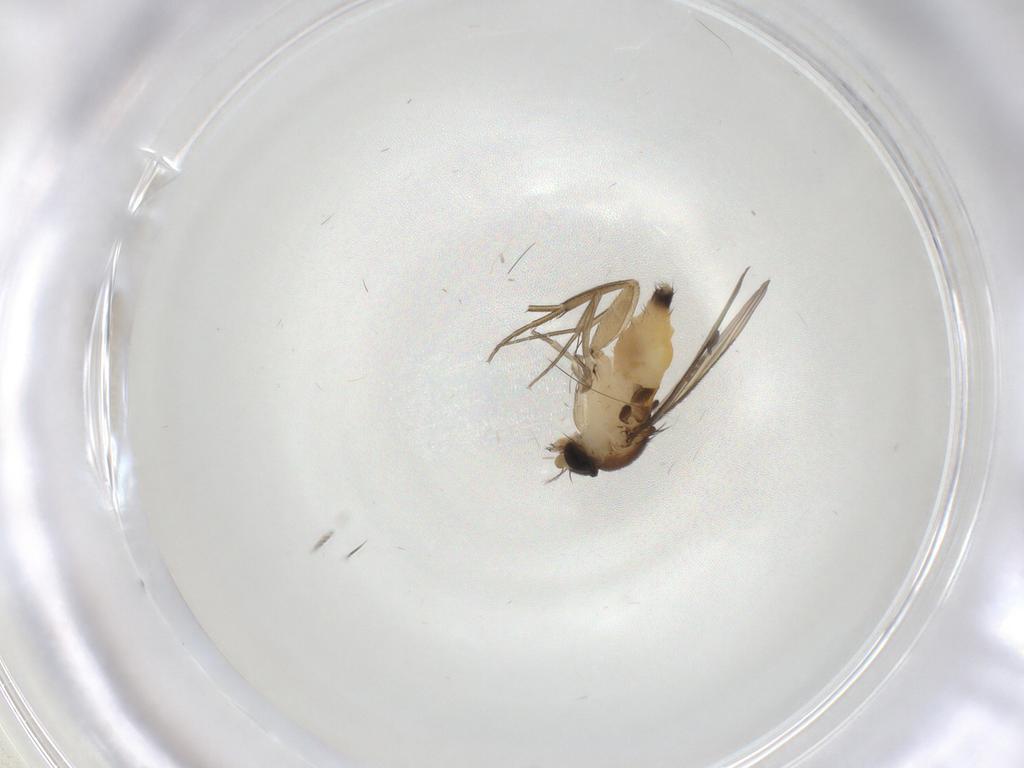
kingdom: Animalia
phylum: Arthropoda
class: Insecta
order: Diptera
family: Sciaridae
